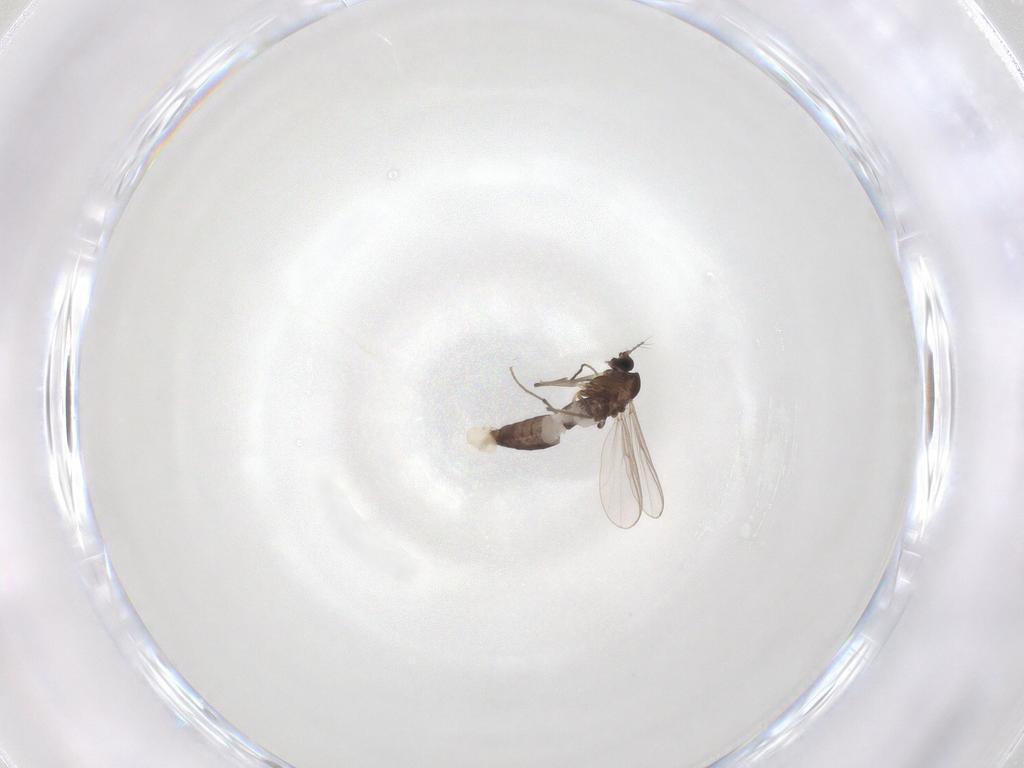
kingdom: Animalia
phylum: Arthropoda
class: Insecta
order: Diptera
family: Chironomidae
